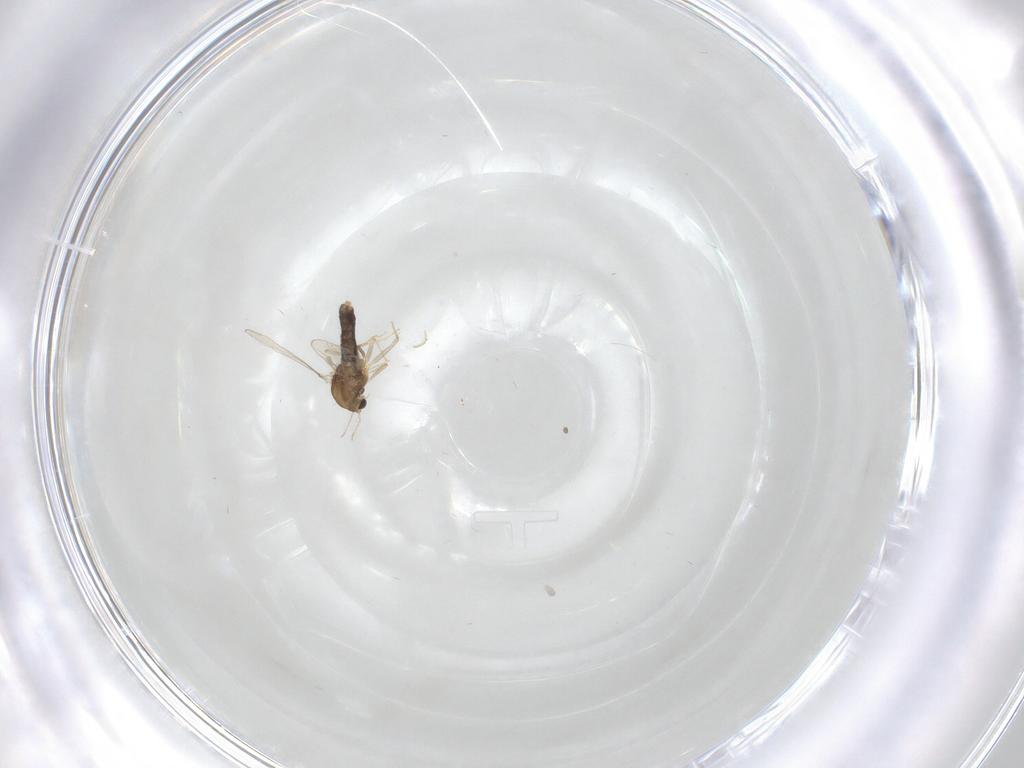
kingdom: Animalia
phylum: Arthropoda
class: Insecta
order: Diptera
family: Chironomidae
